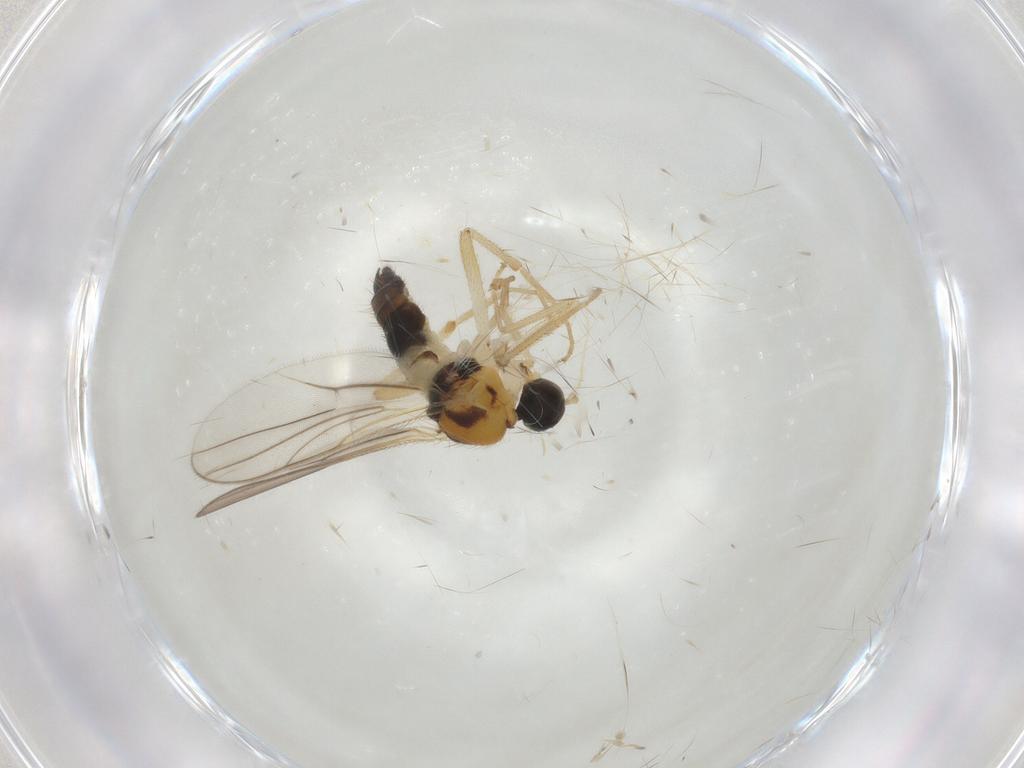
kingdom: Animalia
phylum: Arthropoda
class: Insecta
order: Diptera
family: Hybotidae
